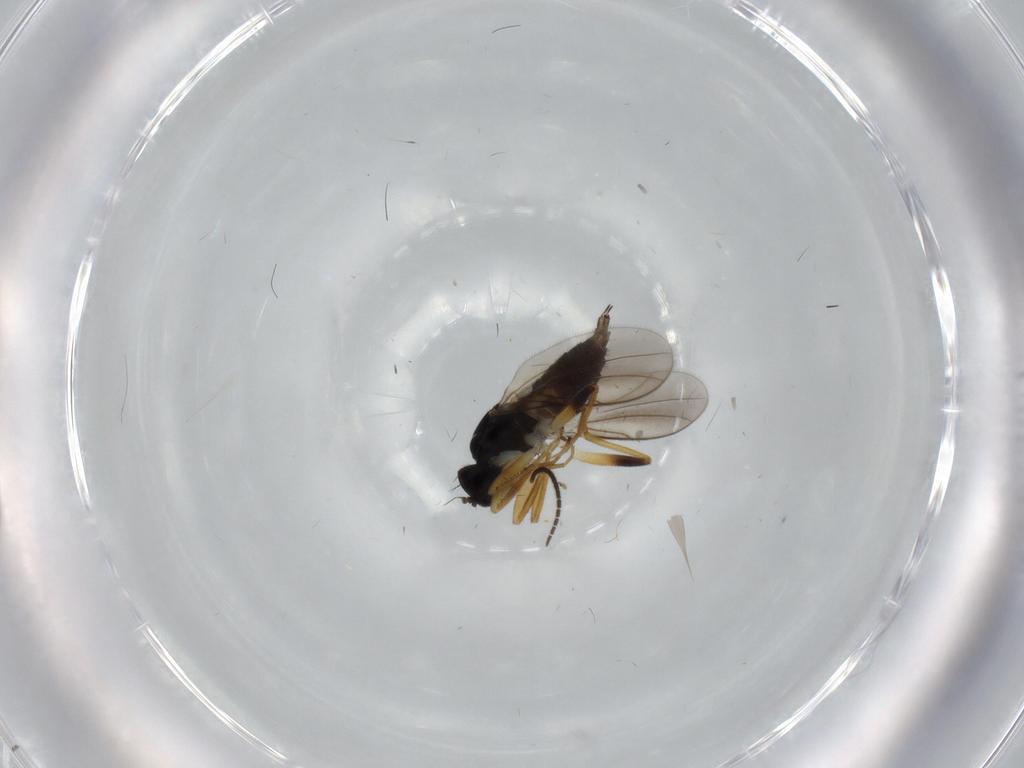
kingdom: Animalia
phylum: Arthropoda
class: Insecta
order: Diptera
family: Hybotidae
